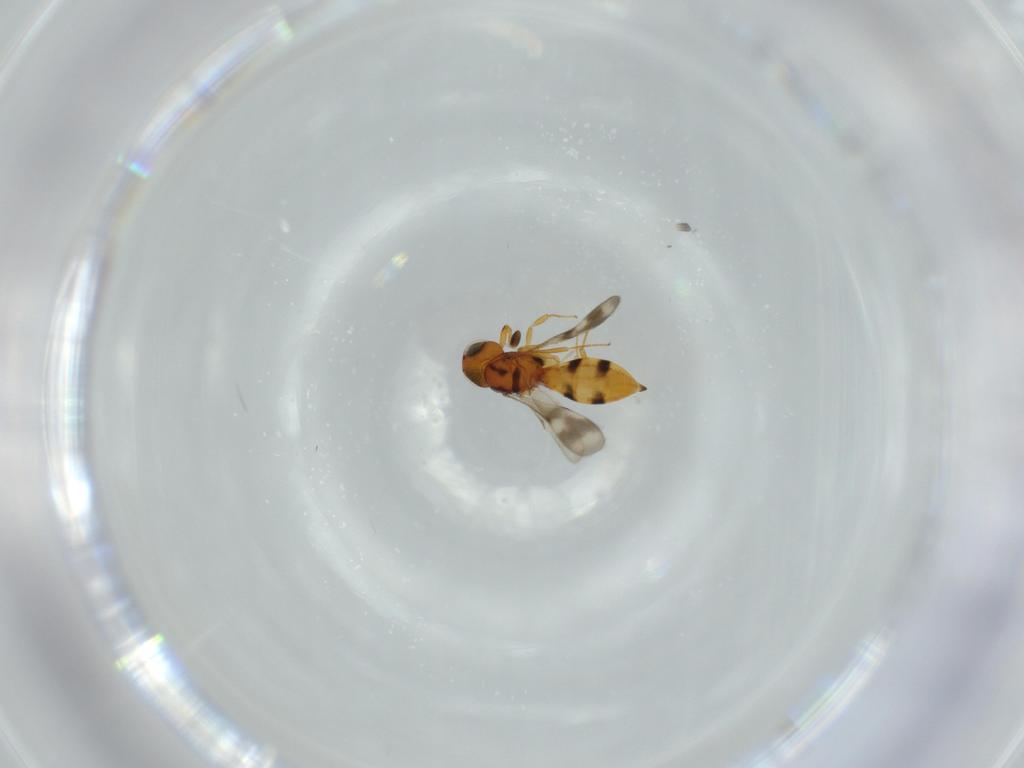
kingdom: Animalia
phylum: Arthropoda
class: Insecta
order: Hymenoptera
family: Scelionidae
